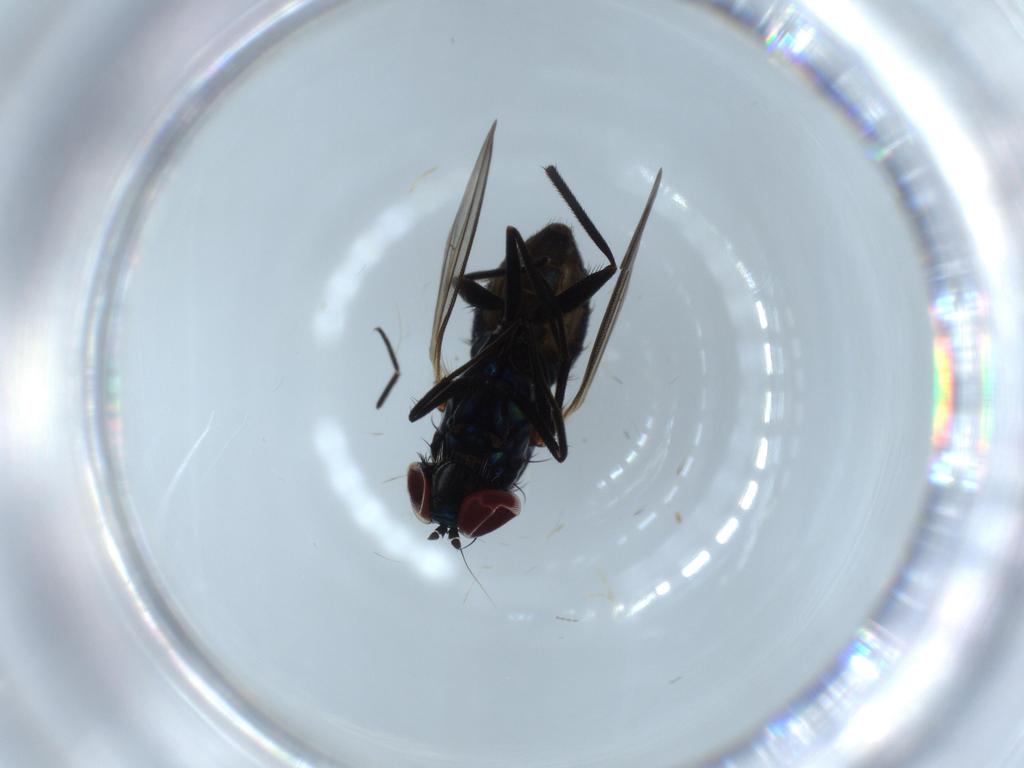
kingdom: Animalia
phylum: Arthropoda
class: Insecta
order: Diptera
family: Dolichopodidae
